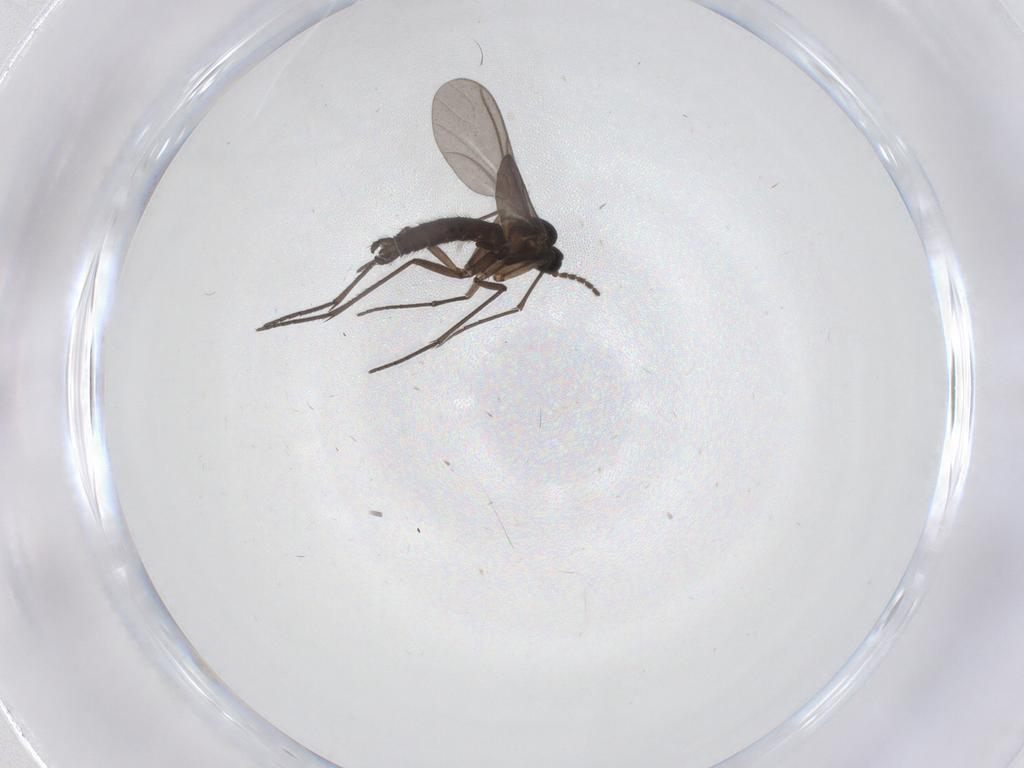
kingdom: Animalia
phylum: Arthropoda
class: Insecta
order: Diptera
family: Sciaridae
